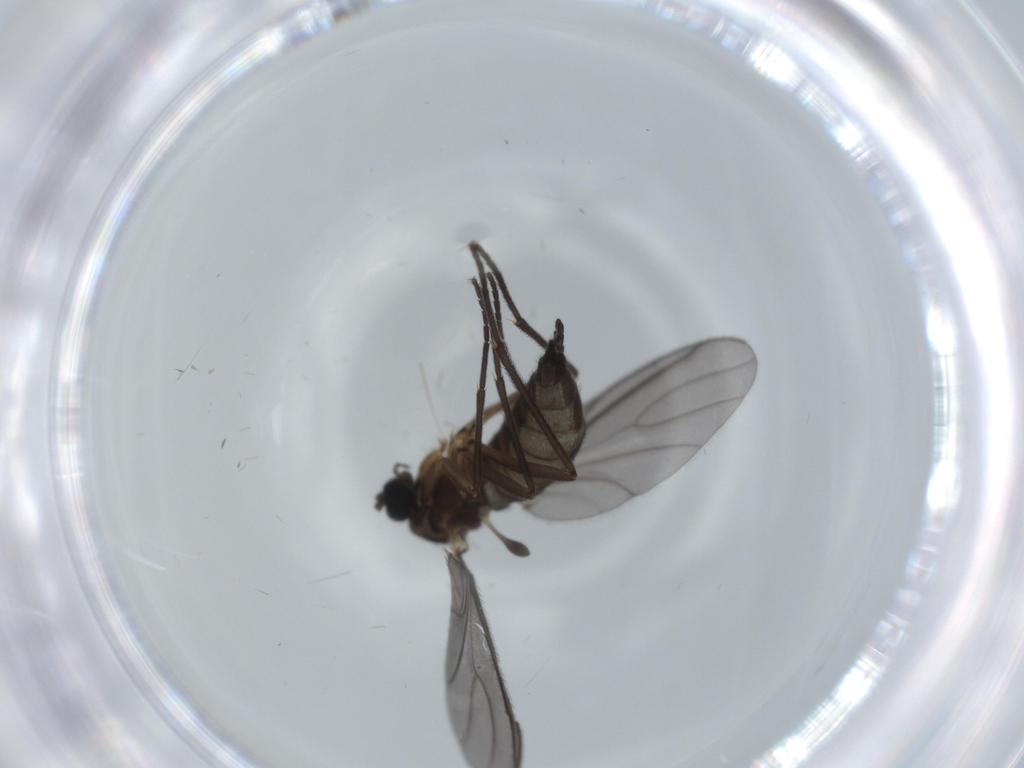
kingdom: Animalia
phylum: Arthropoda
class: Insecta
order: Diptera
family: Sciaridae
